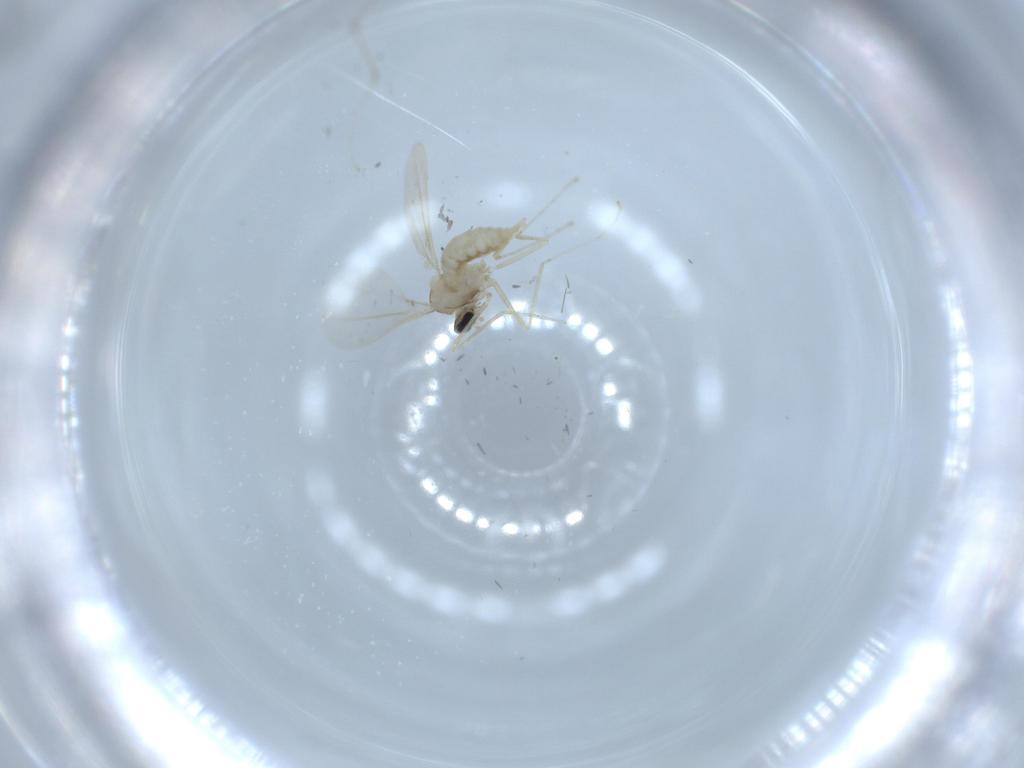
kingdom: Animalia
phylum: Arthropoda
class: Insecta
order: Diptera
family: Cecidomyiidae
